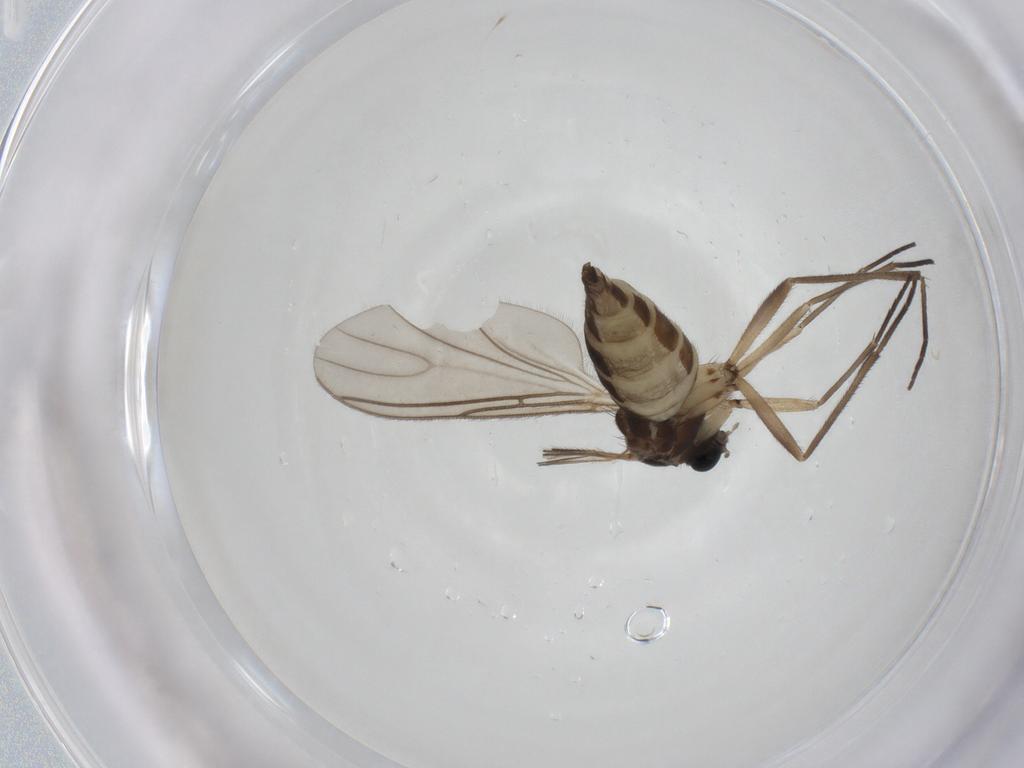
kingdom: Animalia
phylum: Arthropoda
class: Insecta
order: Diptera
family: Sciaridae
